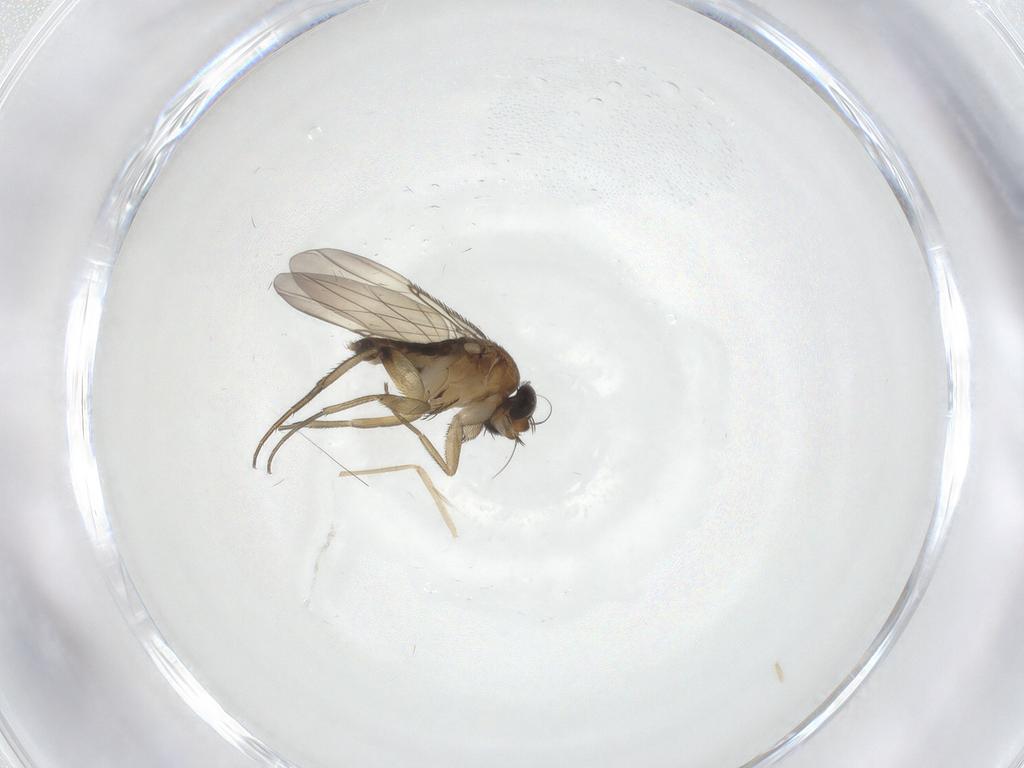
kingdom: Animalia
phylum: Arthropoda
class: Insecta
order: Diptera
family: Phoridae
